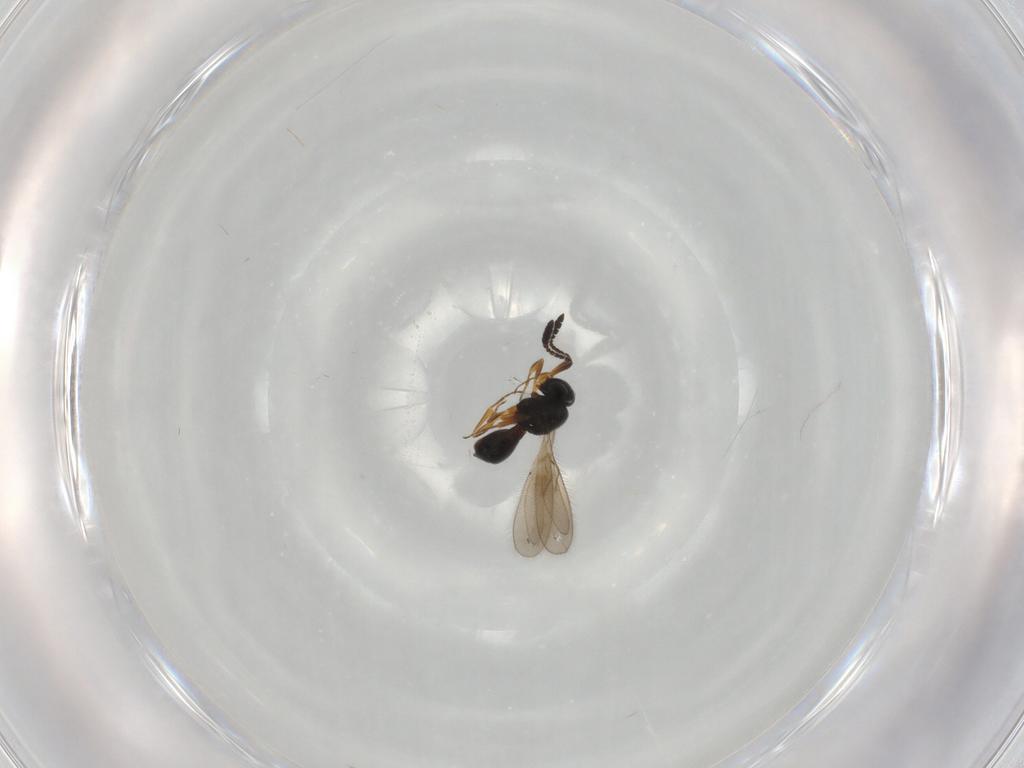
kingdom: Animalia
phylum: Arthropoda
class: Insecta
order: Hymenoptera
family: Scelionidae
